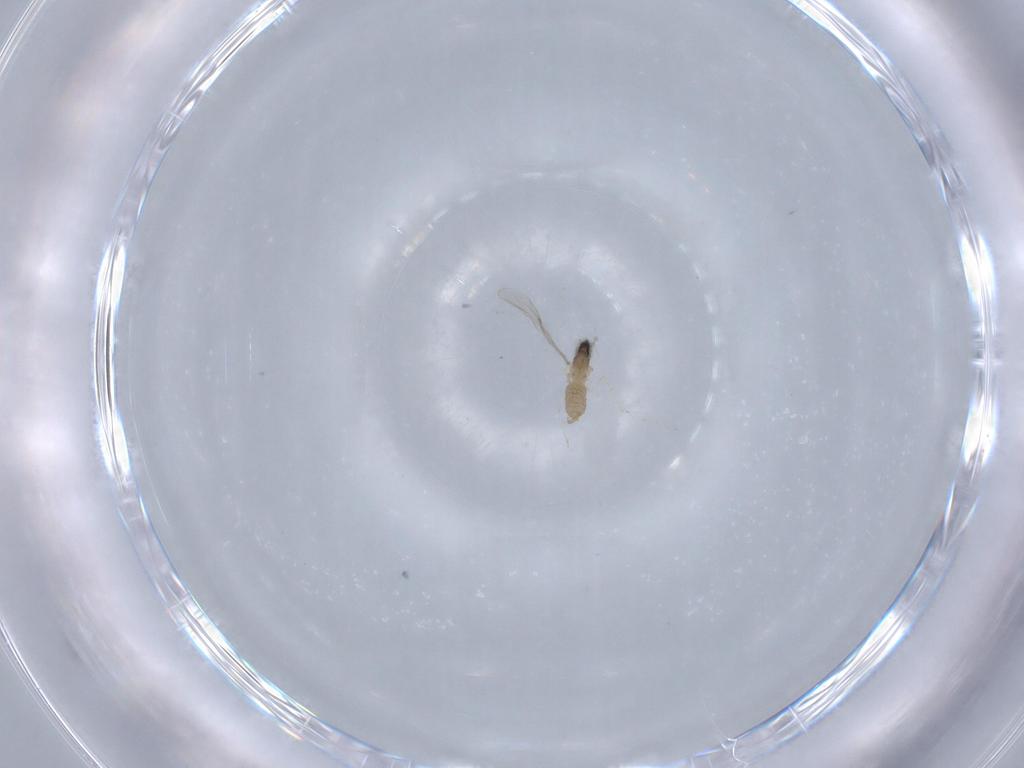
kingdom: Animalia
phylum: Arthropoda
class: Insecta
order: Diptera
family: Cecidomyiidae
